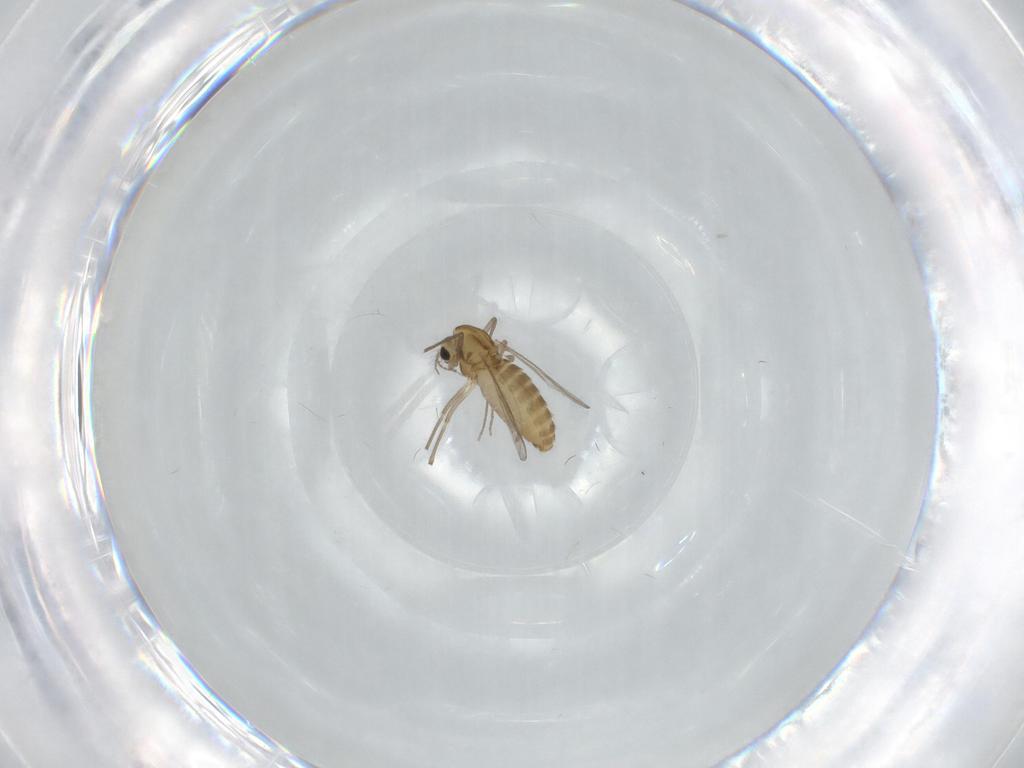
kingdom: Animalia
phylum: Arthropoda
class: Insecta
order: Diptera
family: Chironomidae
